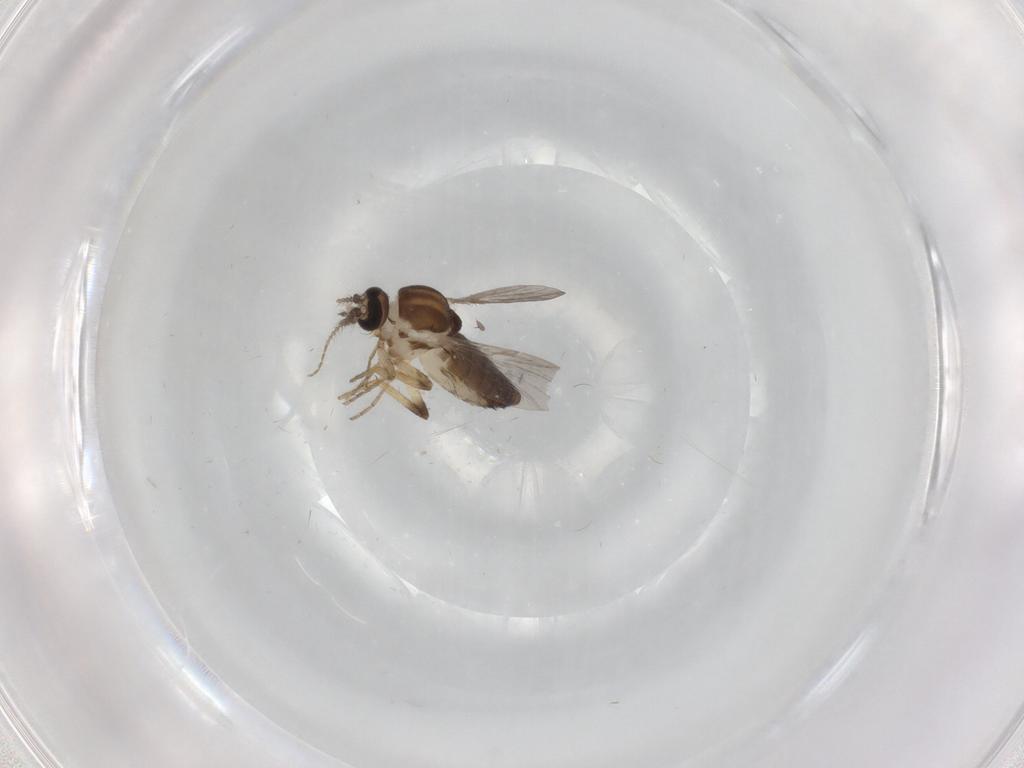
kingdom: Animalia
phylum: Arthropoda
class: Insecta
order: Diptera
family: Ceratopogonidae
